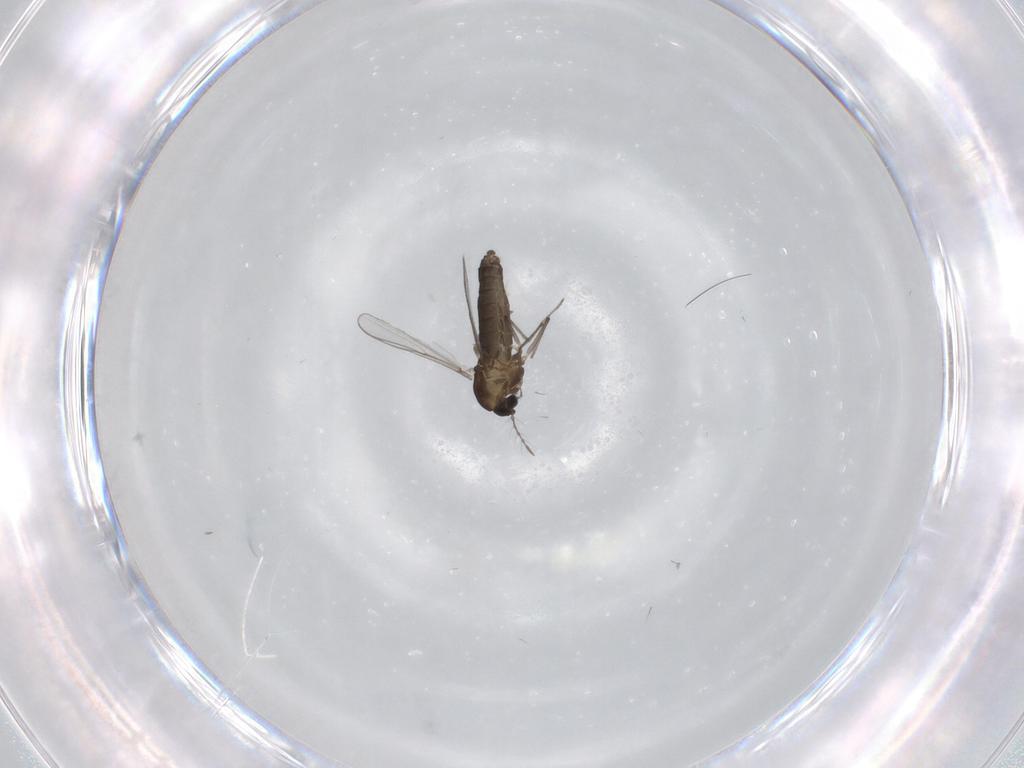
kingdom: Animalia
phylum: Arthropoda
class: Insecta
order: Diptera
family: Chironomidae
